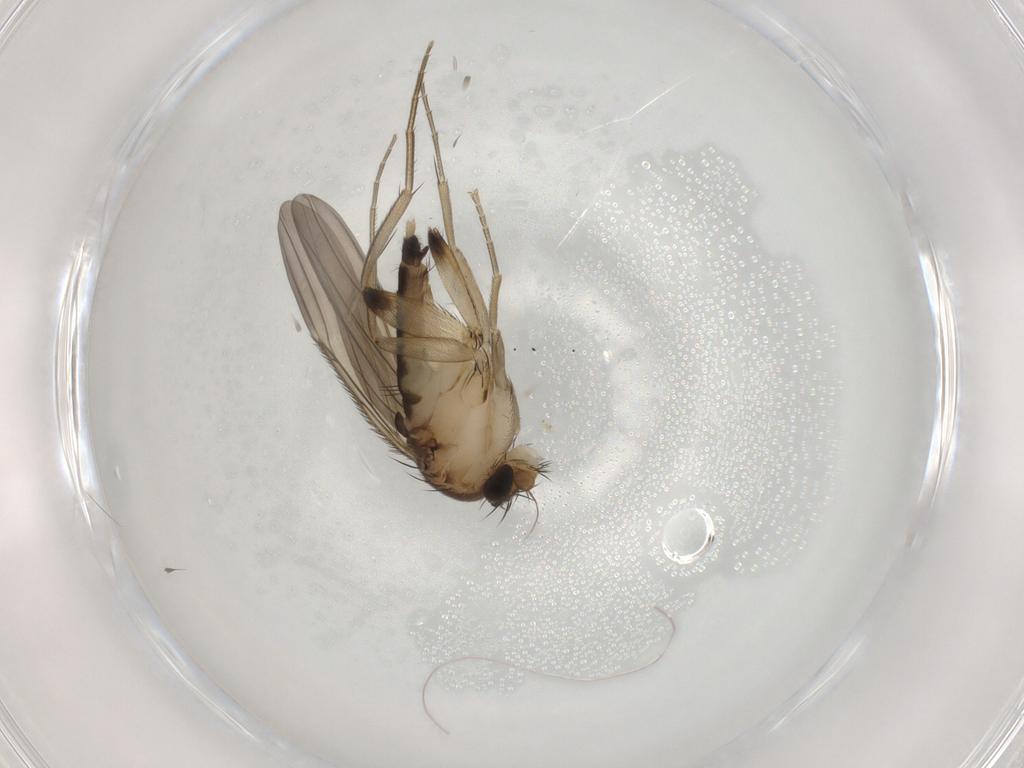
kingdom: Animalia
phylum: Arthropoda
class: Insecta
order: Diptera
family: Phoridae
